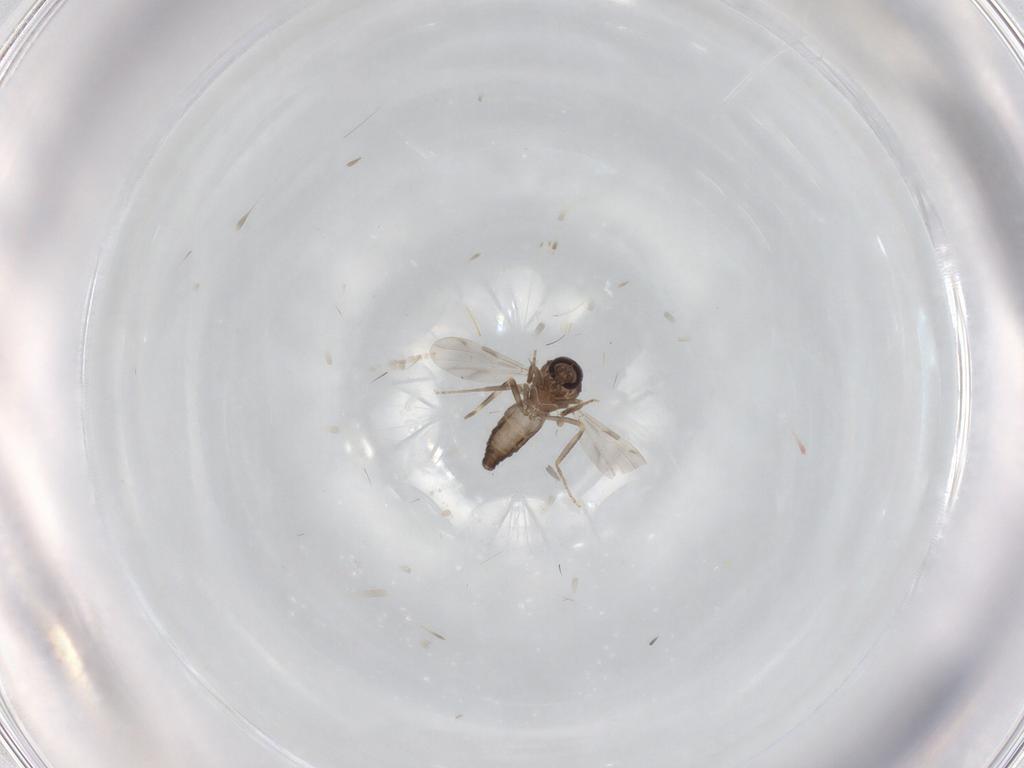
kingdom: Animalia
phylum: Arthropoda
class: Insecta
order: Diptera
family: Ceratopogonidae
